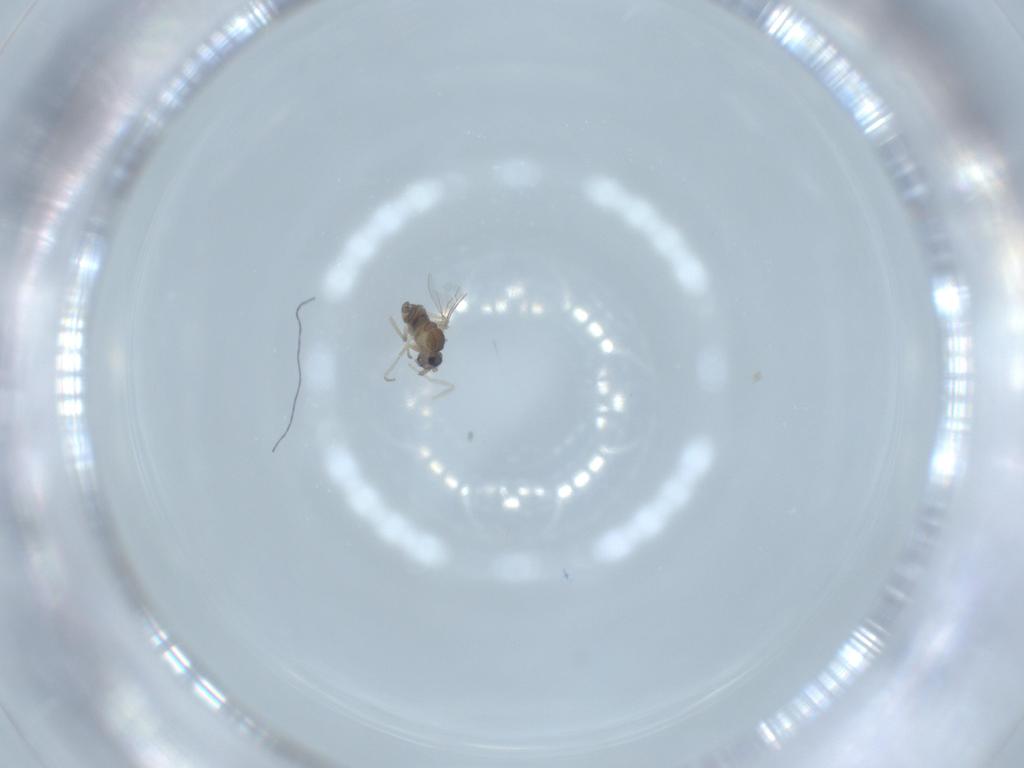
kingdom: Animalia
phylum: Arthropoda
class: Insecta
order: Diptera
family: Cecidomyiidae
